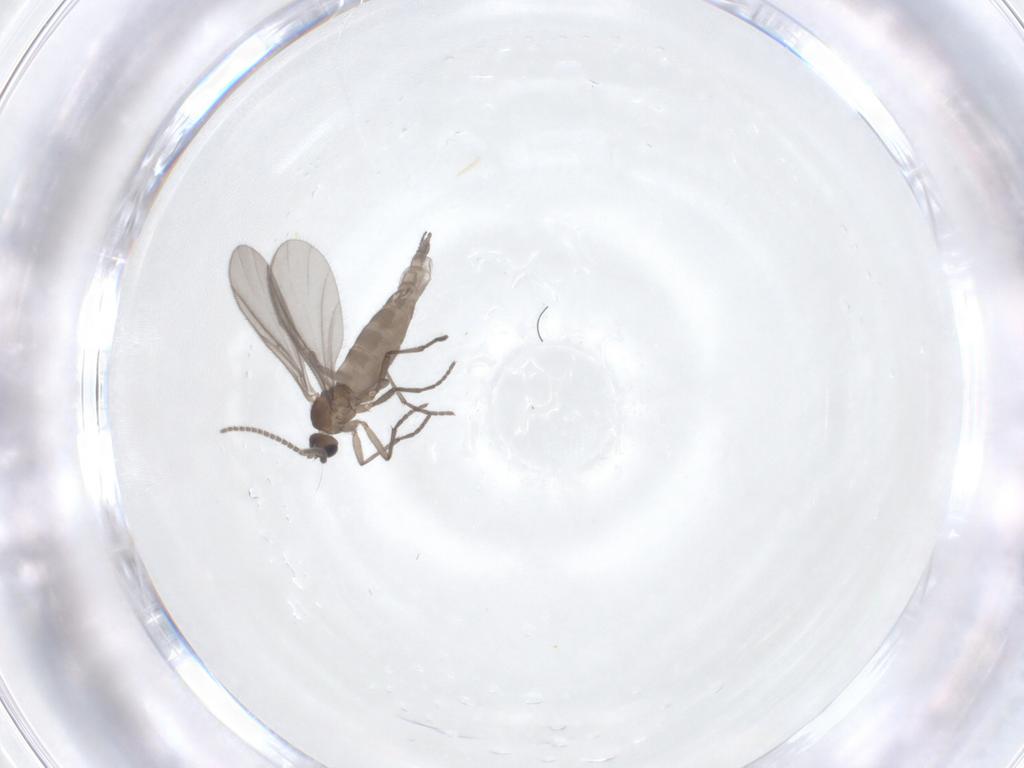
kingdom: Animalia
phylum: Arthropoda
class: Insecta
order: Diptera
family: Sciaridae
